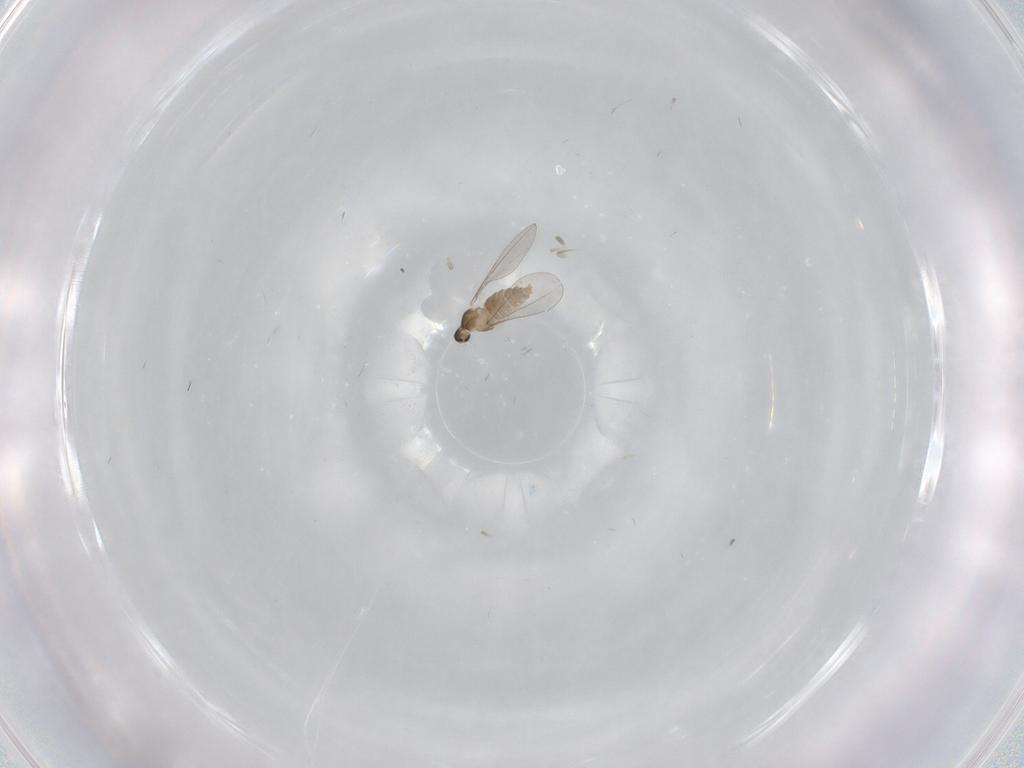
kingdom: Animalia
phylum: Arthropoda
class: Insecta
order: Diptera
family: Cecidomyiidae
